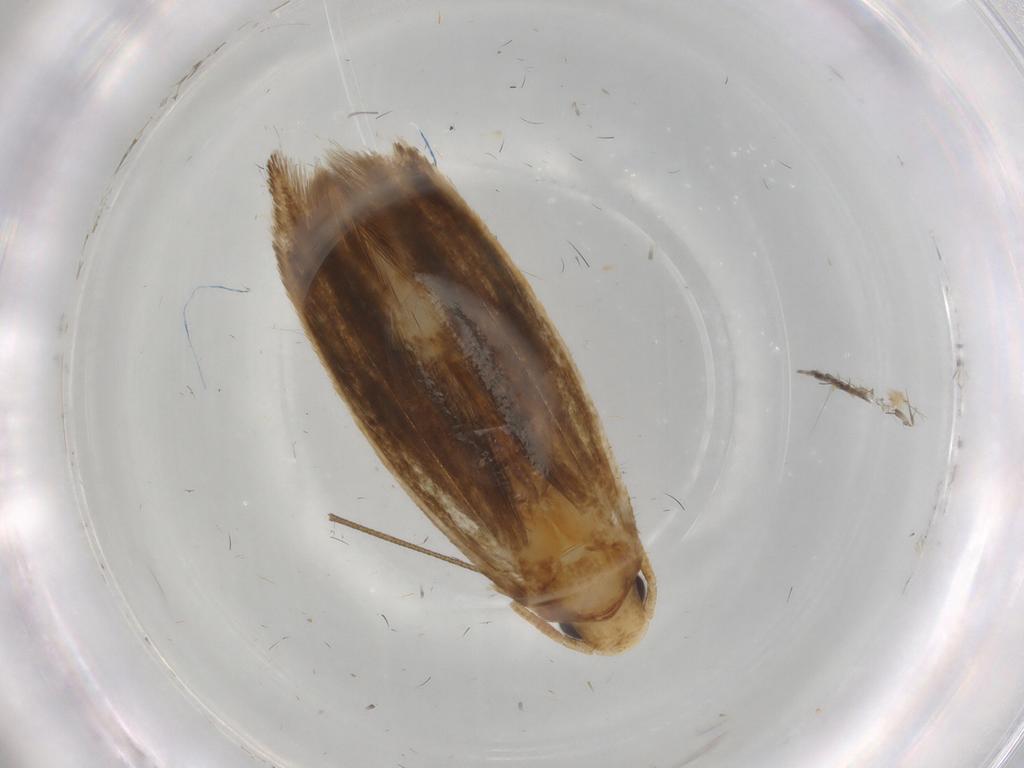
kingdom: Animalia
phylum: Arthropoda
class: Insecta
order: Lepidoptera
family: Tineidae
